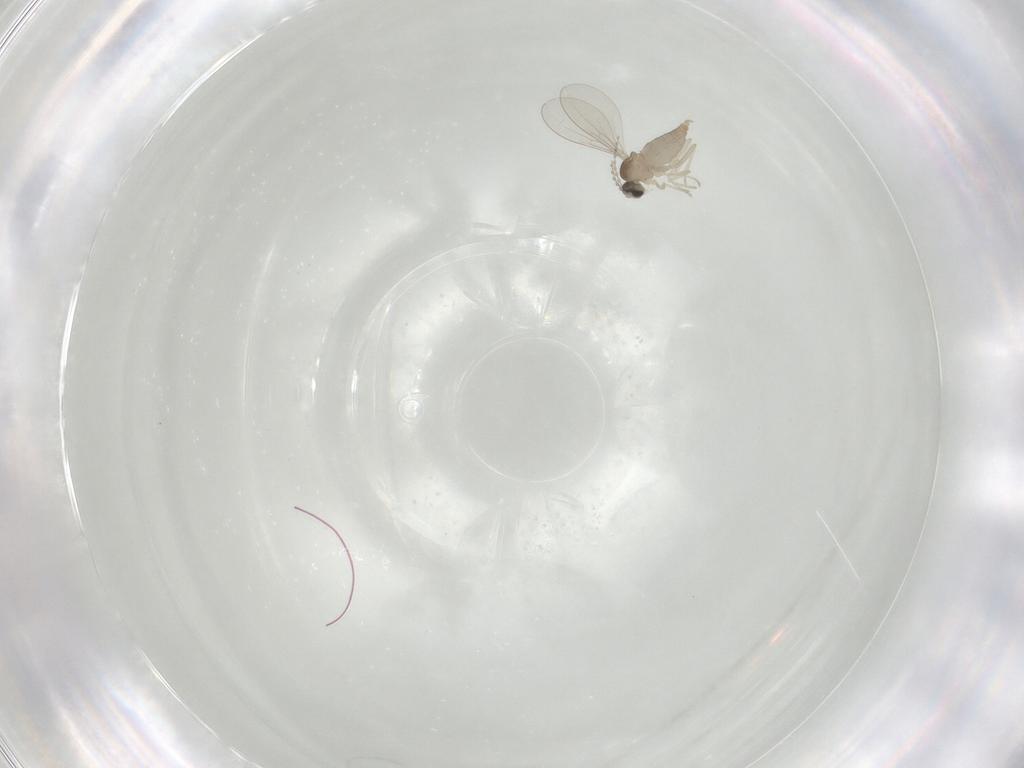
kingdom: Animalia
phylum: Arthropoda
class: Insecta
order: Diptera
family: Cecidomyiidae
